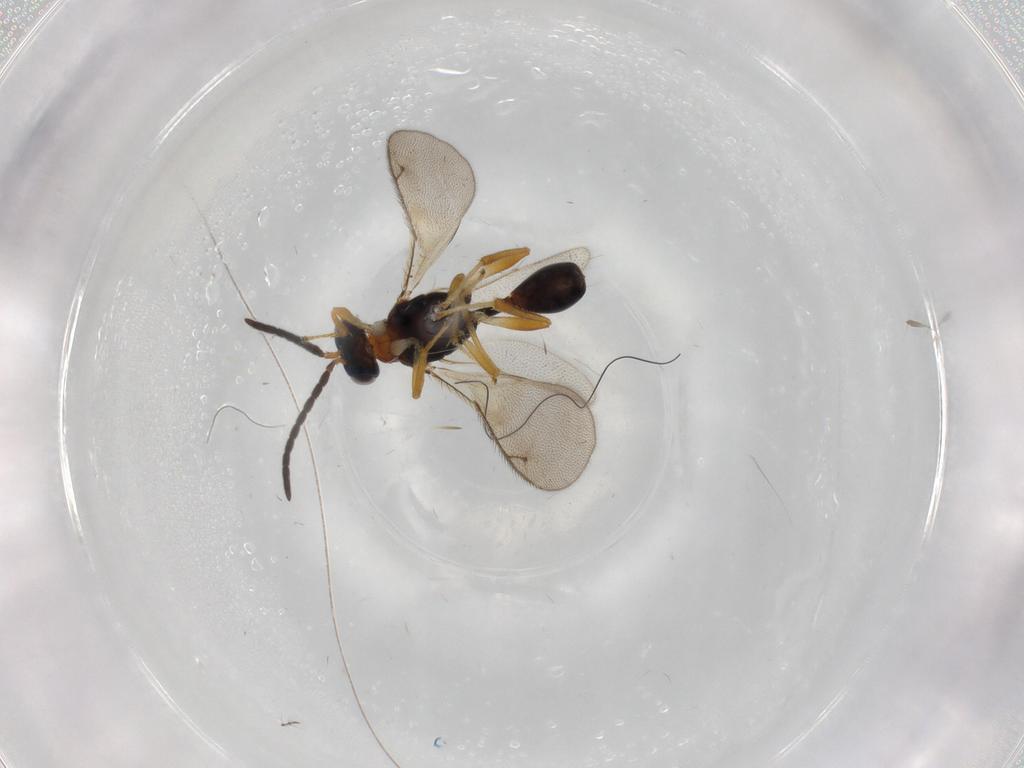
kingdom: Animalia
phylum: Arthropoda
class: Insecta
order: Hymenoptera
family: Diparidae
